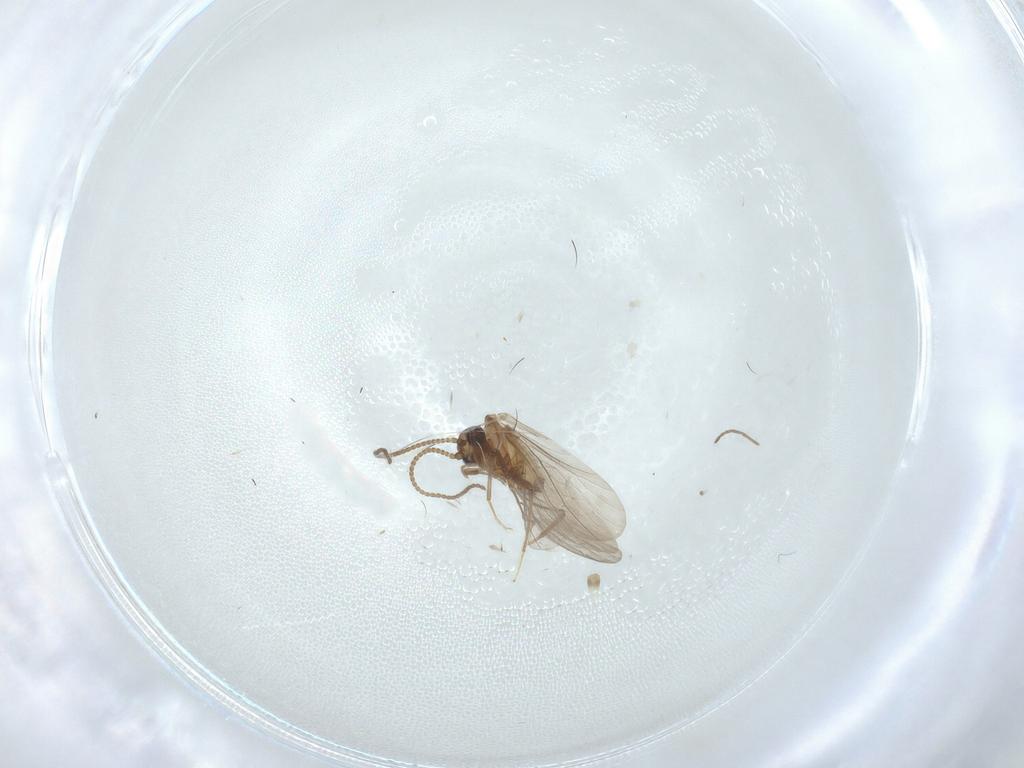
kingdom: Animalia
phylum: Arthropoda
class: Insecta
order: Neuroptera
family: Coniopterygidae
